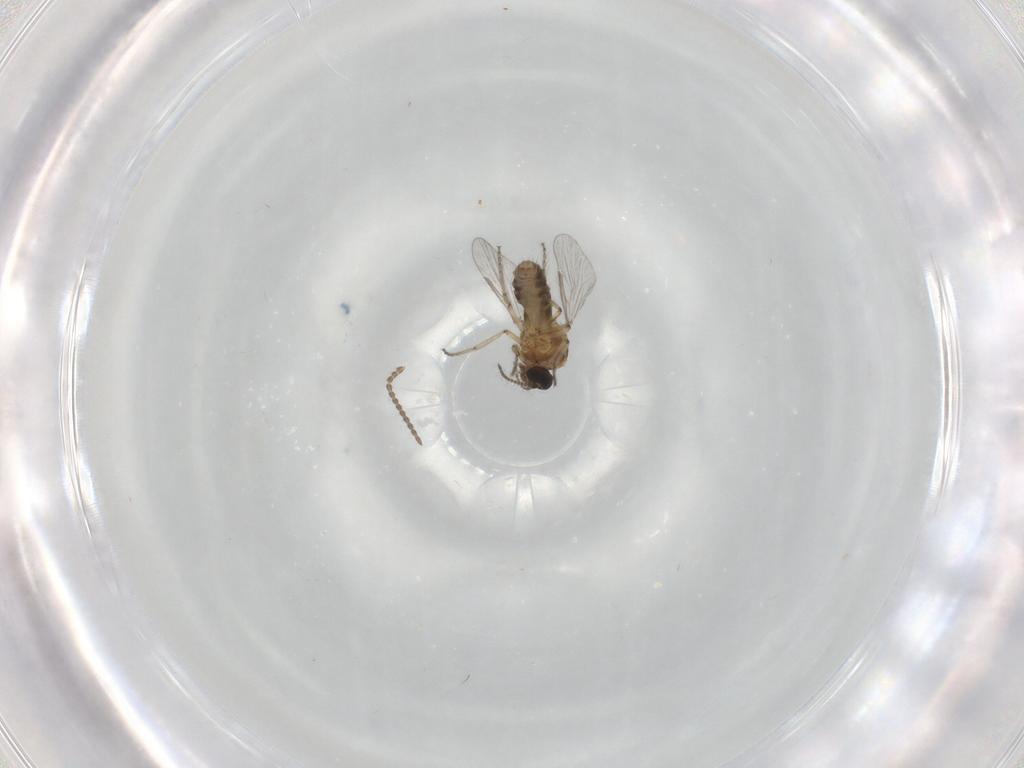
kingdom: Animalia
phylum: Arthropoda
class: Insecta
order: Diptera
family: Ceratopogonidae
